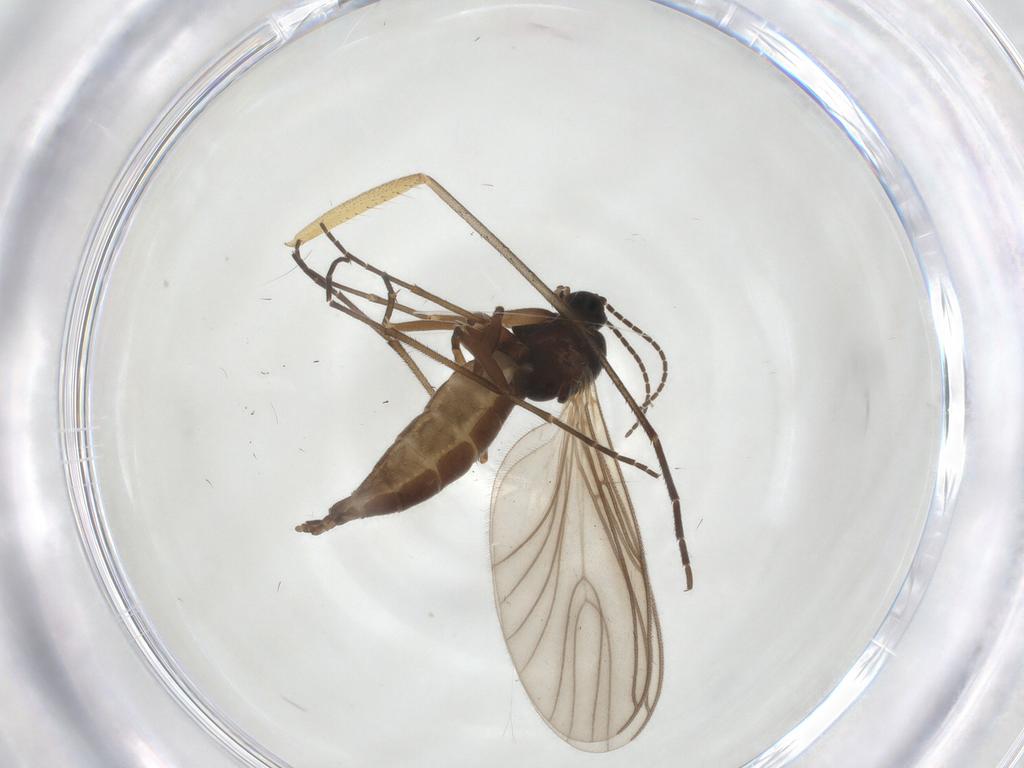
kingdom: Animalia
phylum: Arthropoda
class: Insecta
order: Diptera
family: Sciaridae
